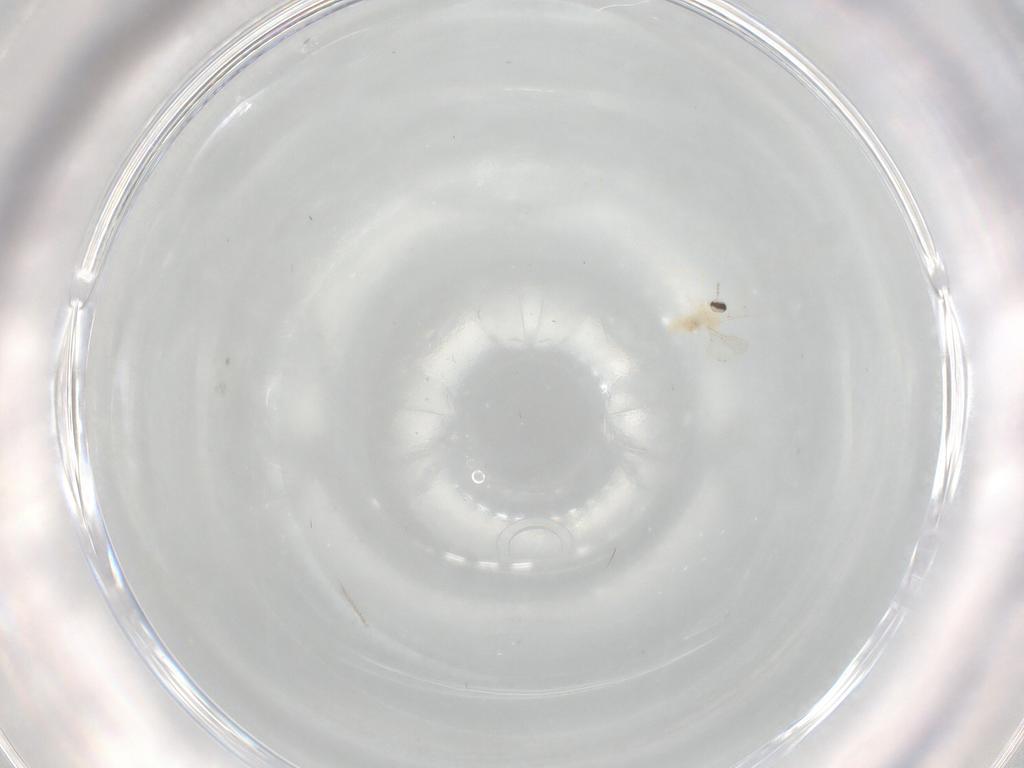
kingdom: Animalia
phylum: Arthropoda
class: Insecta
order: Diptera
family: Cecidomyiidae
